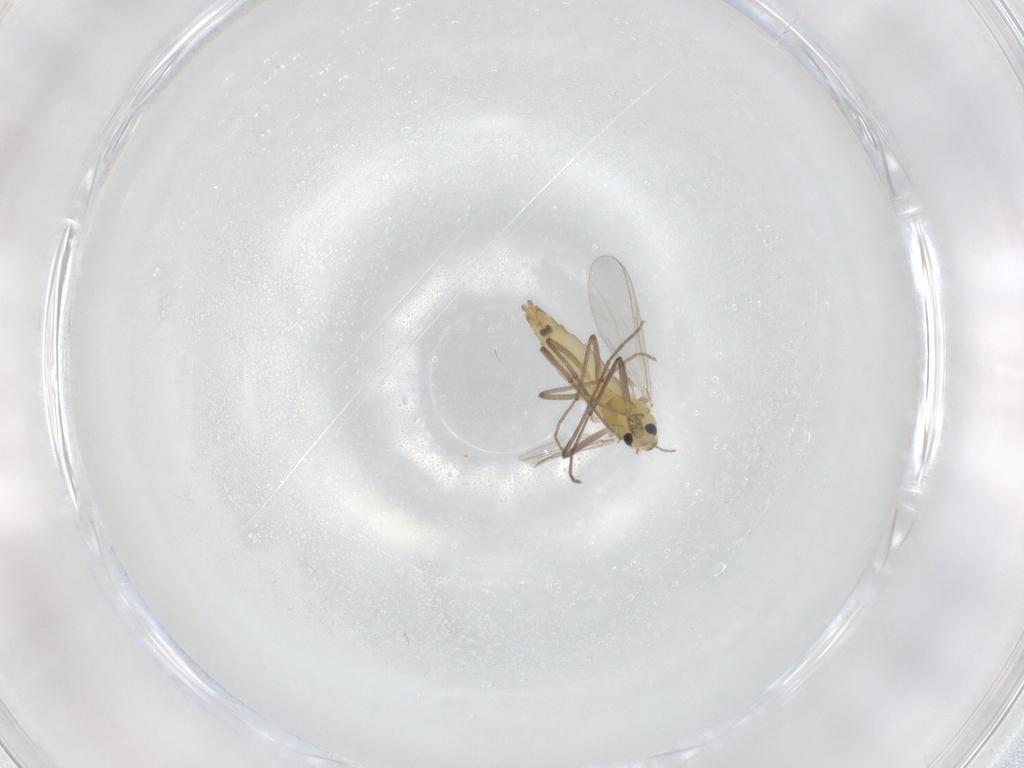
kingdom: Animalia
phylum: Arthropoda
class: Insecta
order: Diptera
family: Chironomidae
